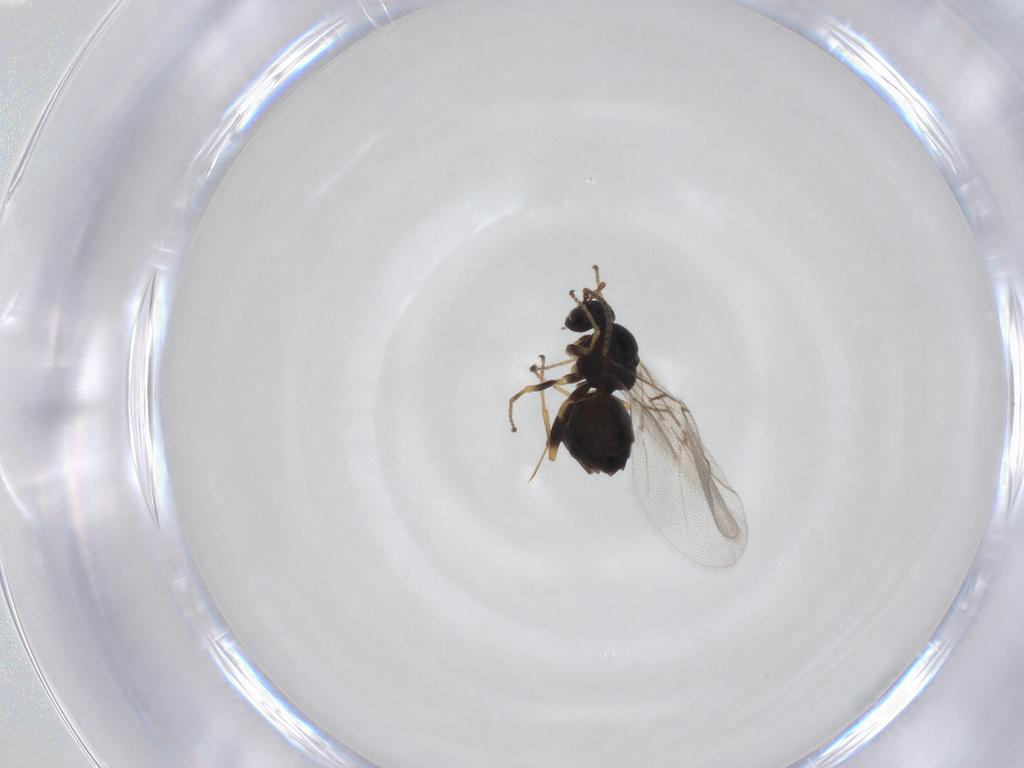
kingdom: Animalia
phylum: Arthropoda
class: Insecta
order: Hymenoptera
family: Cynipidae
